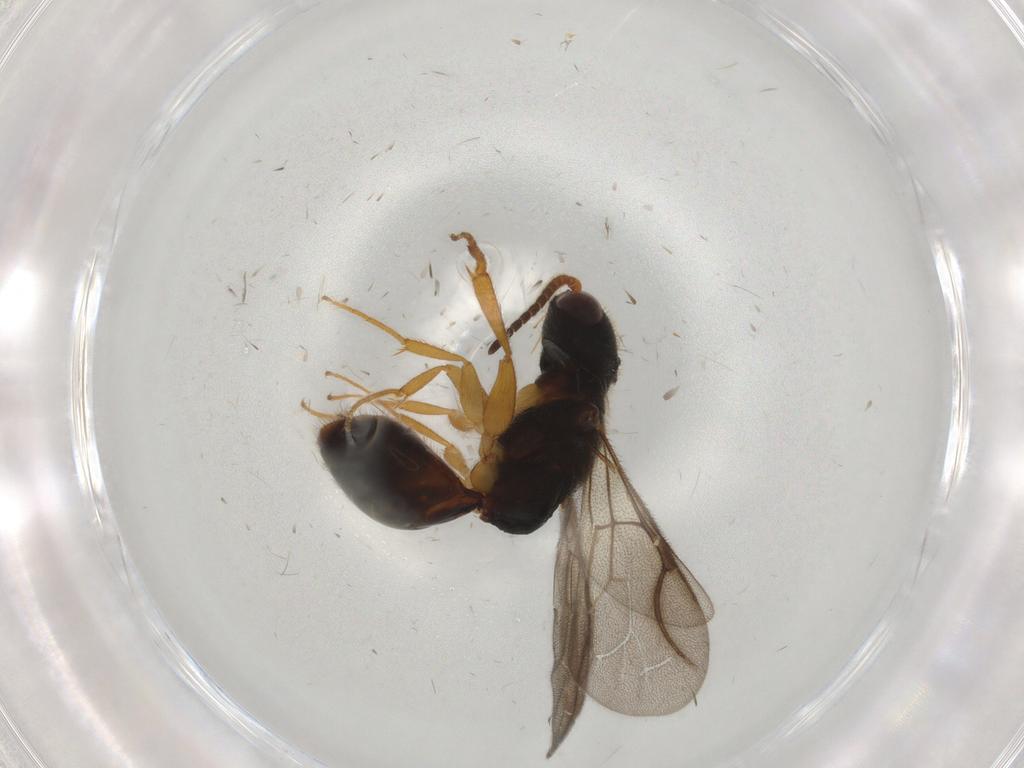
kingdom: Animalia
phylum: Arthropoda
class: Insecta
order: Hymenoptera
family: Bethylidae
